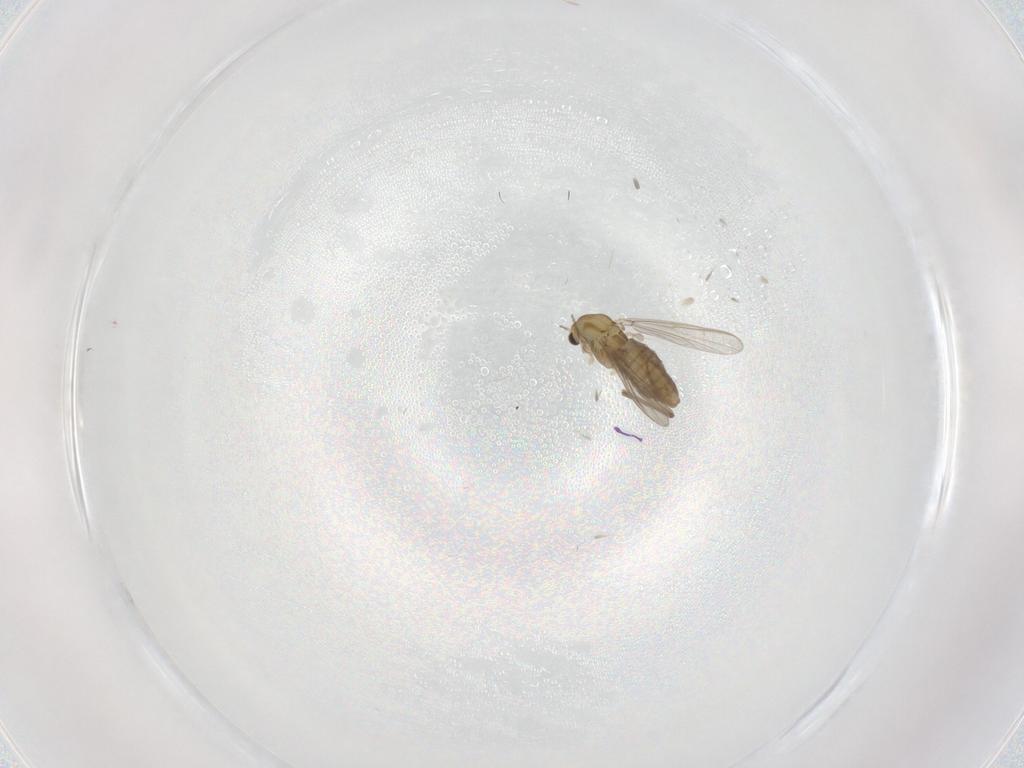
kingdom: Animalia
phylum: Arthropoda
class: Insecta
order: Diptera
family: Chironomidae
